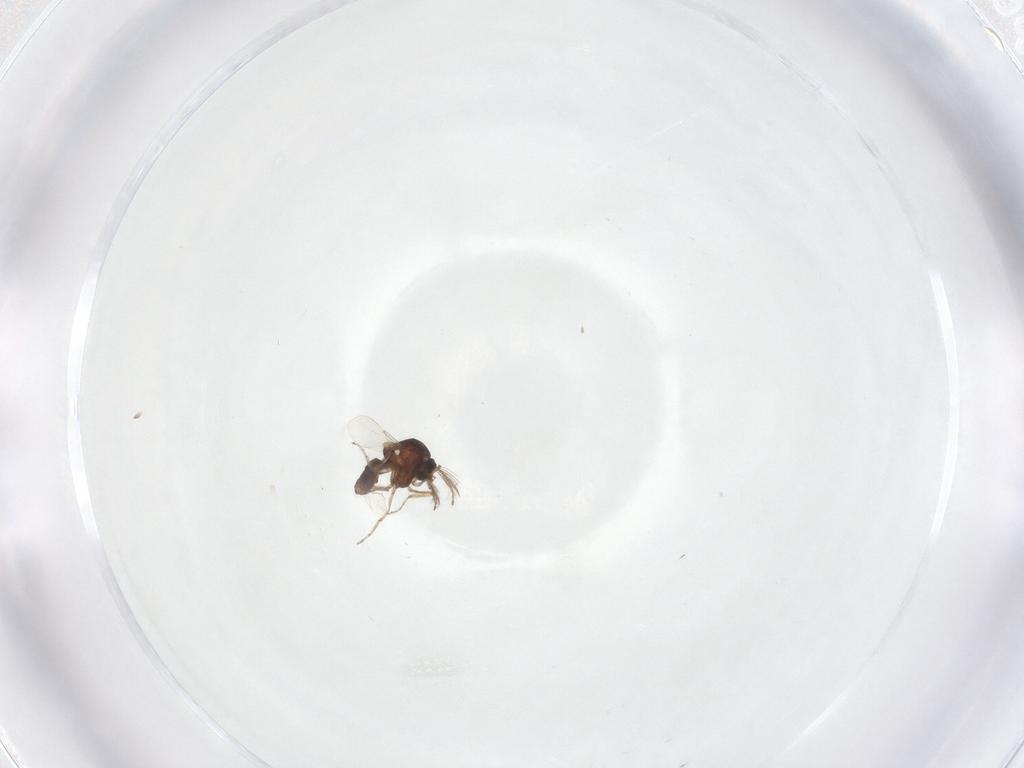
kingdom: Animalia
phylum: Arthropoda
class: Insecta
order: Diptera
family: Ceratopogonidae
